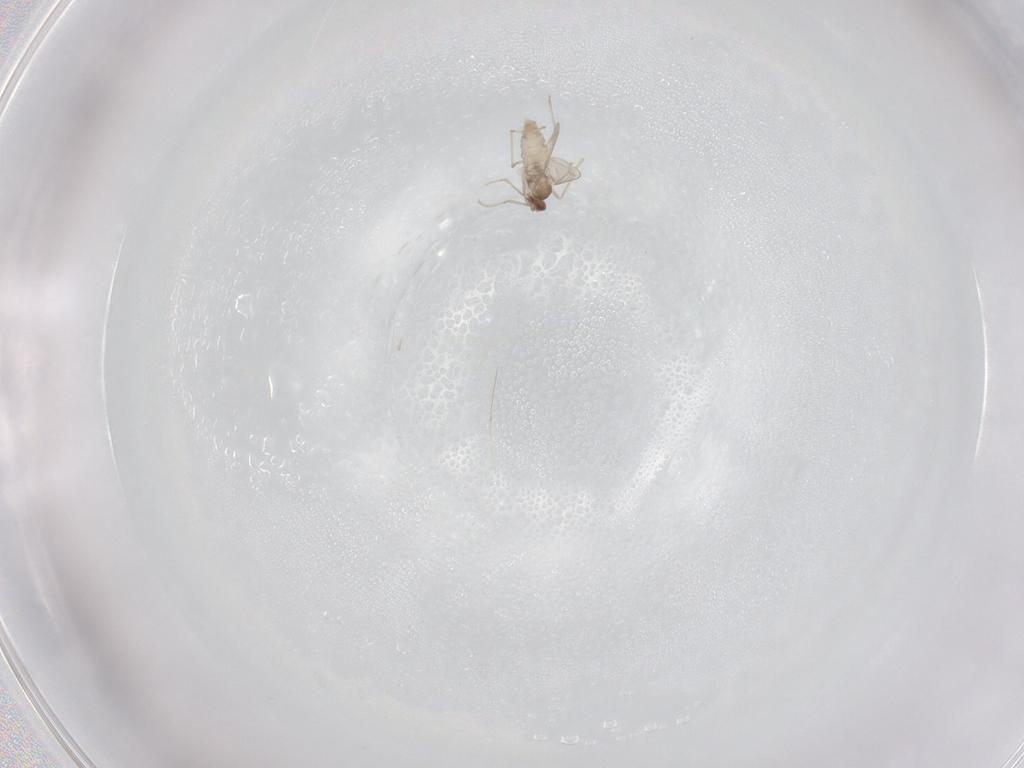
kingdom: Animalia
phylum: Arthropoda
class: Insecta
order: Diptera
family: Cecidomyiidae
